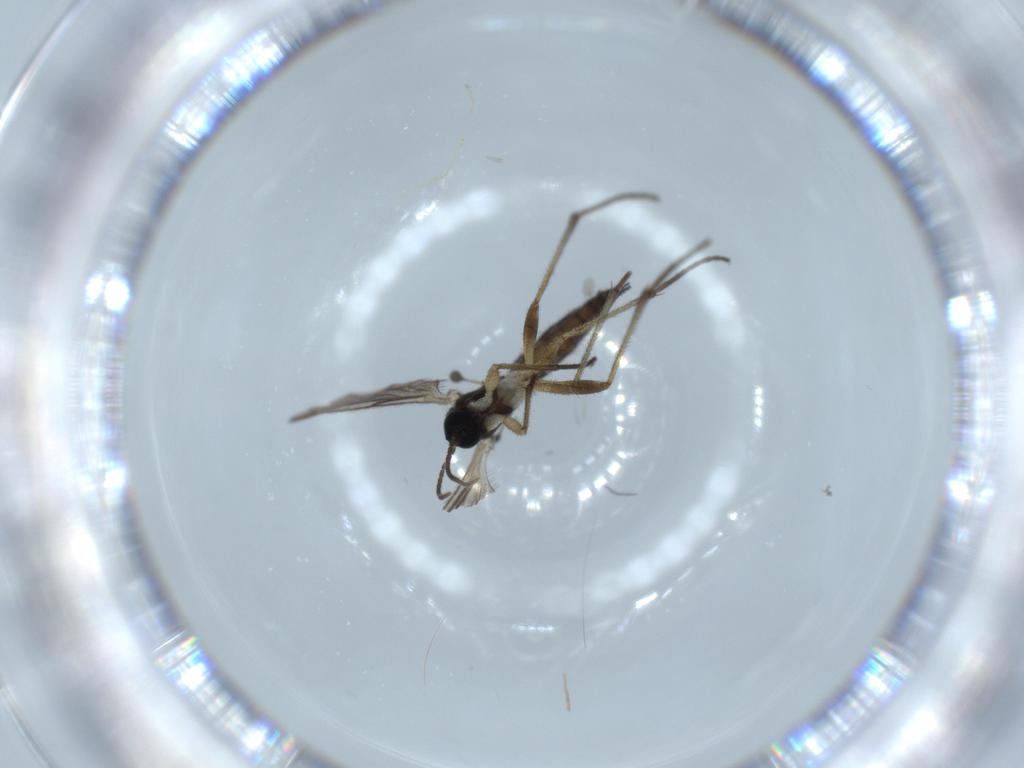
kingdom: Animalia
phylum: Arthropoda
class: Insecta
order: Diptera
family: Sciaridae
